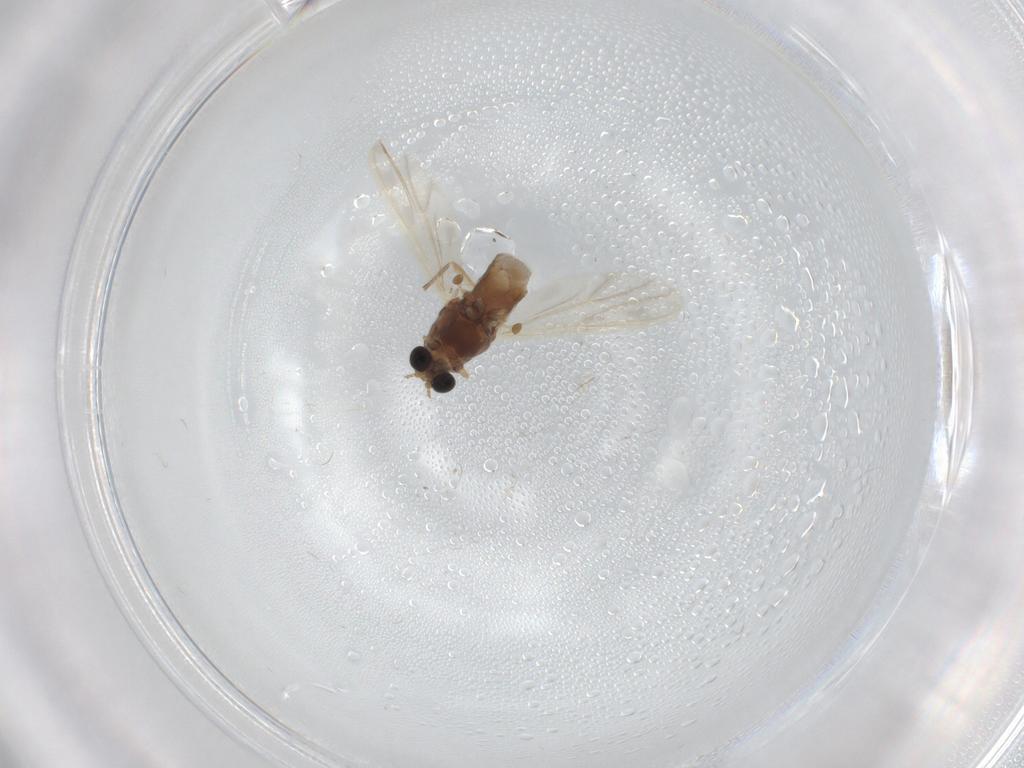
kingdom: Animalia
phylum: Arthropoda
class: Insecta
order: Diptera
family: Chironomidae
